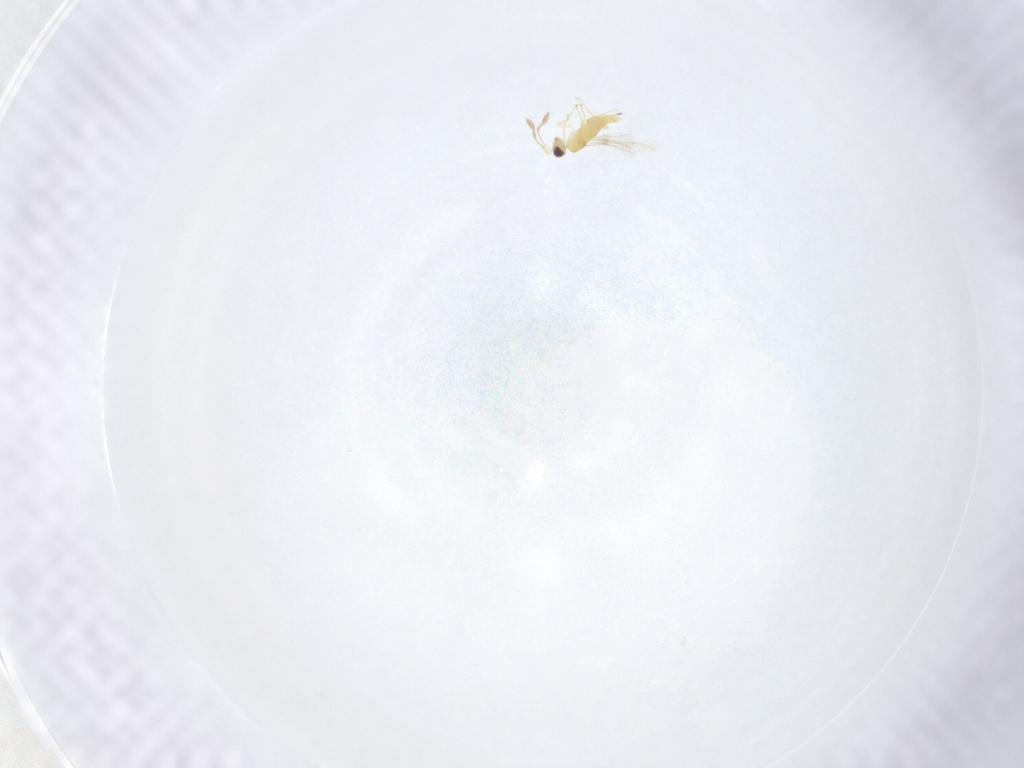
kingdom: Animalia
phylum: Arthropoda
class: Insecta
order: Hymenoptera
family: Mymaridae
